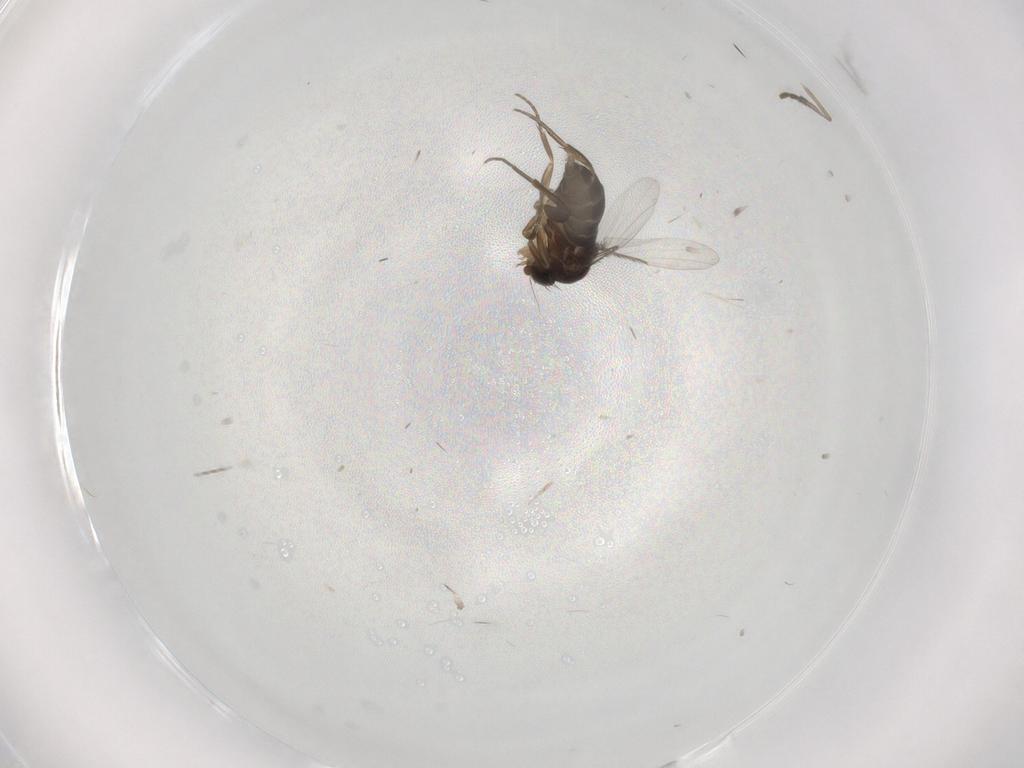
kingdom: Animalia
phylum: Arthropoda
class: Insecta
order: Diptera
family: Phoridae
